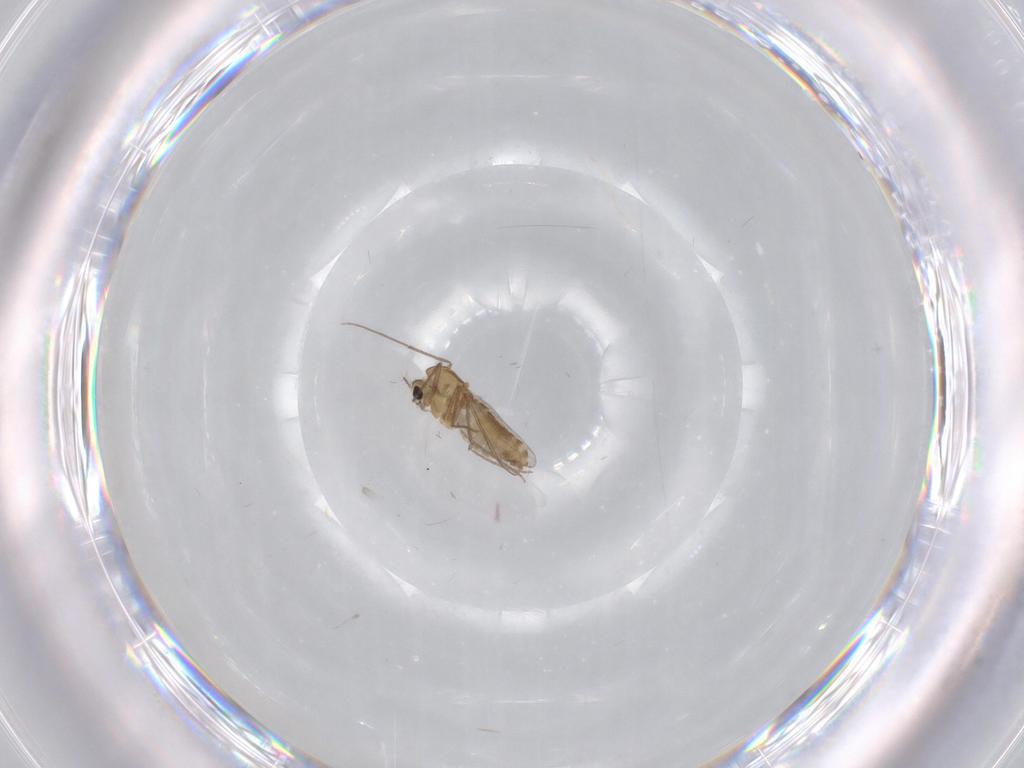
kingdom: Animalia
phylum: Arthropoda
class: Insecta
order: Diptera
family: Chironomidae
